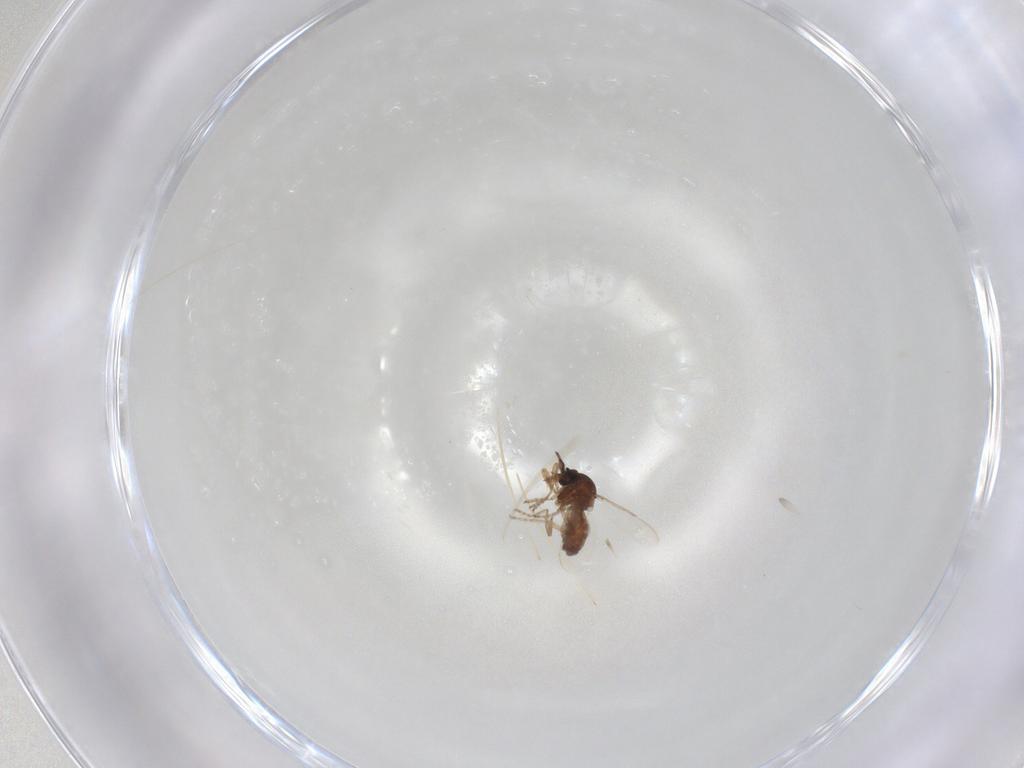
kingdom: Animalia
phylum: Arthropoda
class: Insecta
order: Diptera
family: Ceratopogonidae
